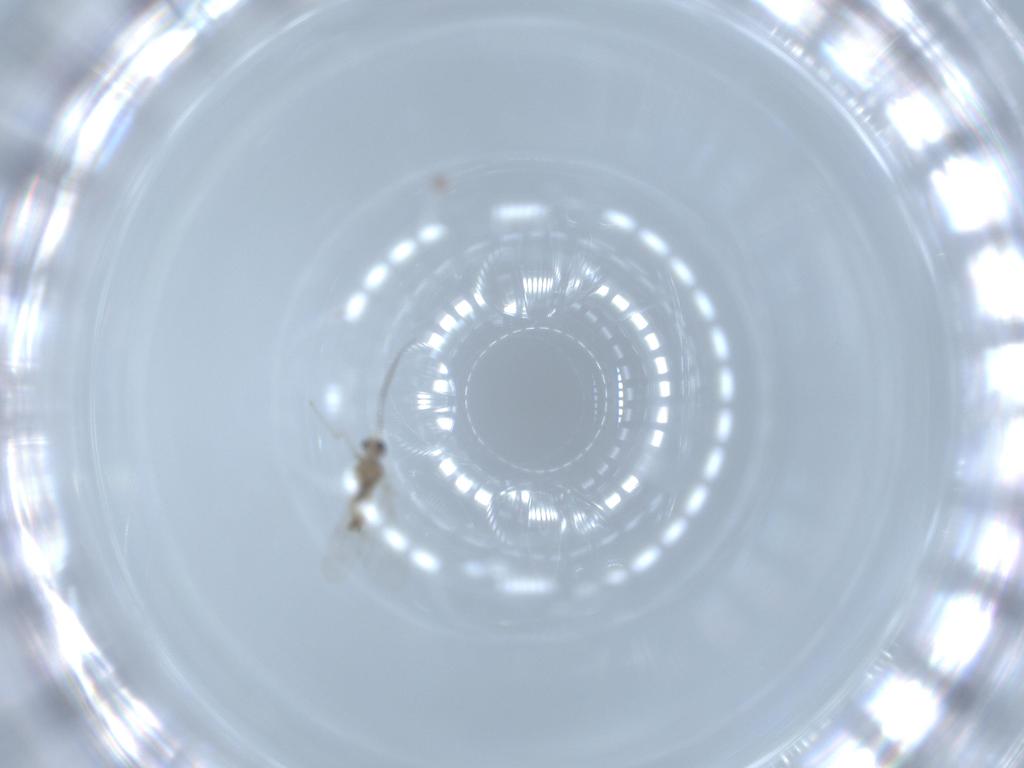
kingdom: Animalia
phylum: Arthropoda
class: Insecta
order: Diptera
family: Cecidomyiidae
